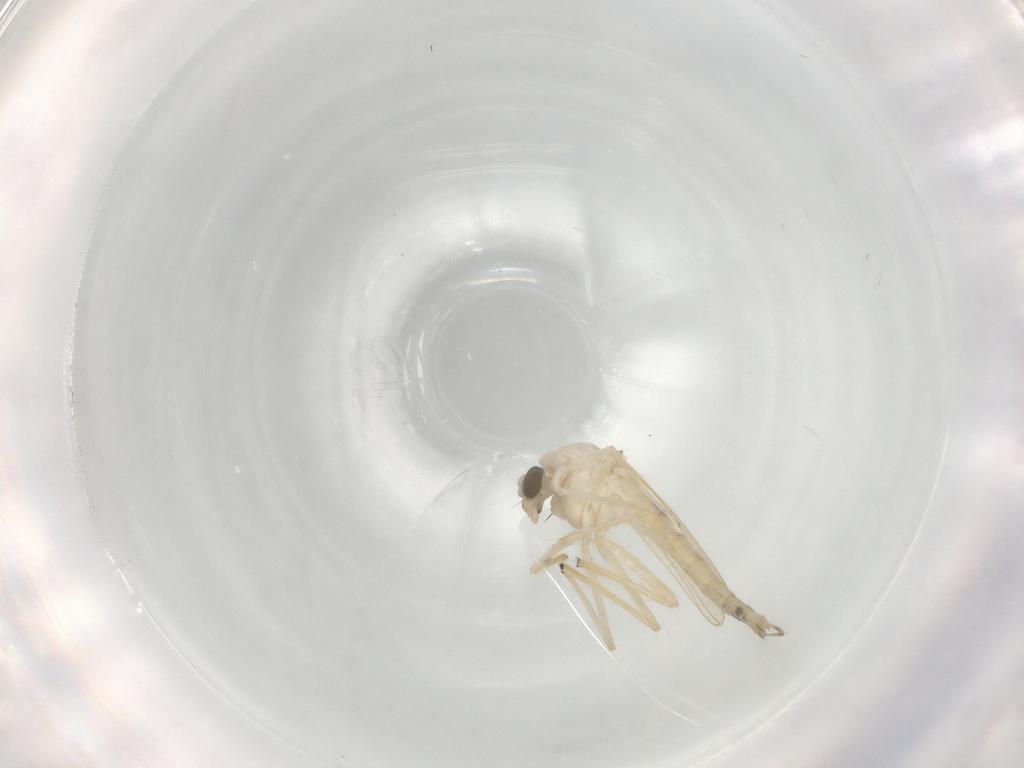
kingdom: Animalia
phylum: Arthropoda
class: Insecta
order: Diptera
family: Chironomidae
